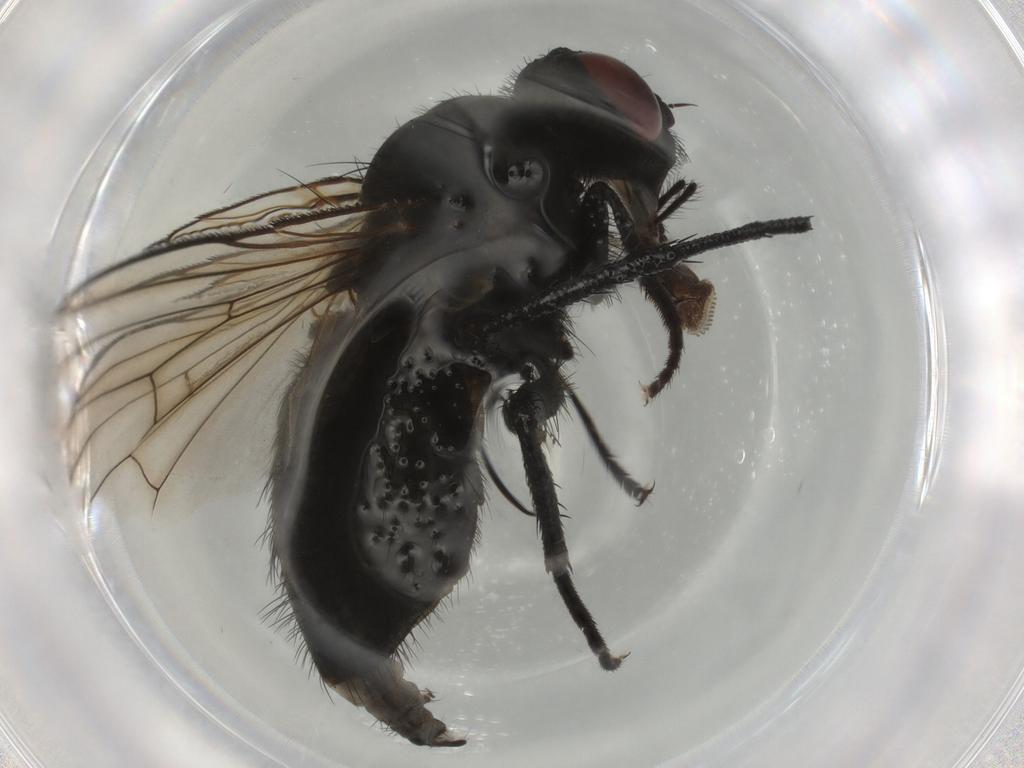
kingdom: Animalia
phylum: Arthropoda
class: Insecta
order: Diptera
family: Muscidae
